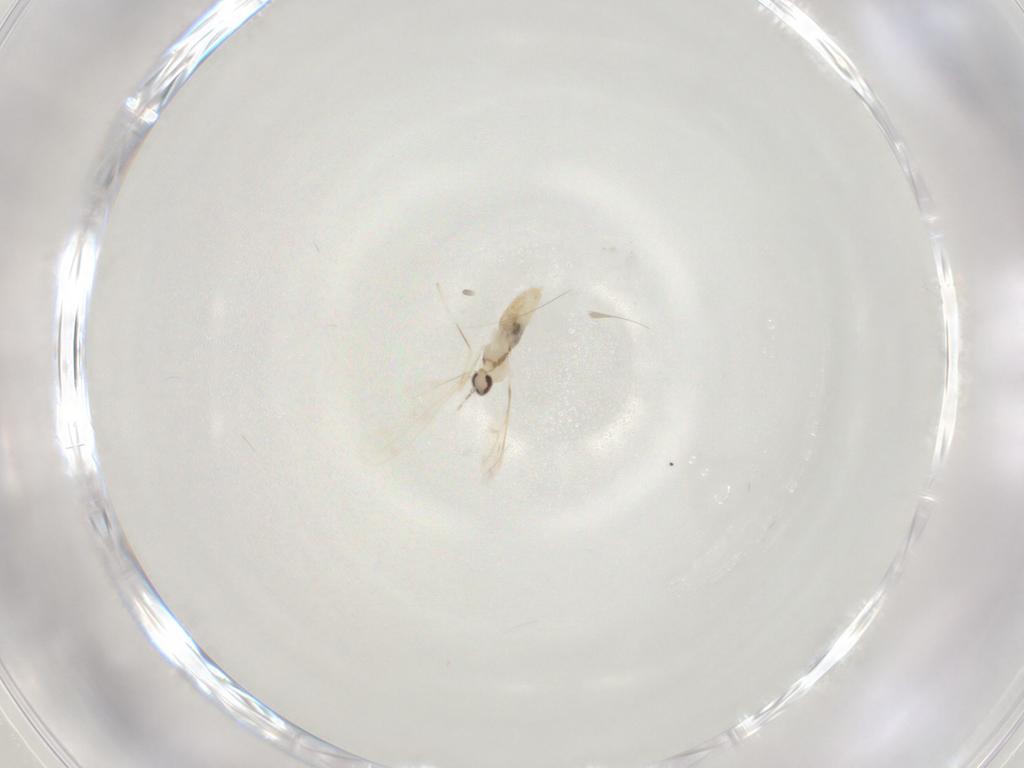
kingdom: Animalia
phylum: Arthropoda
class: Insecta
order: Diptera
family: Cecidomyiidae
